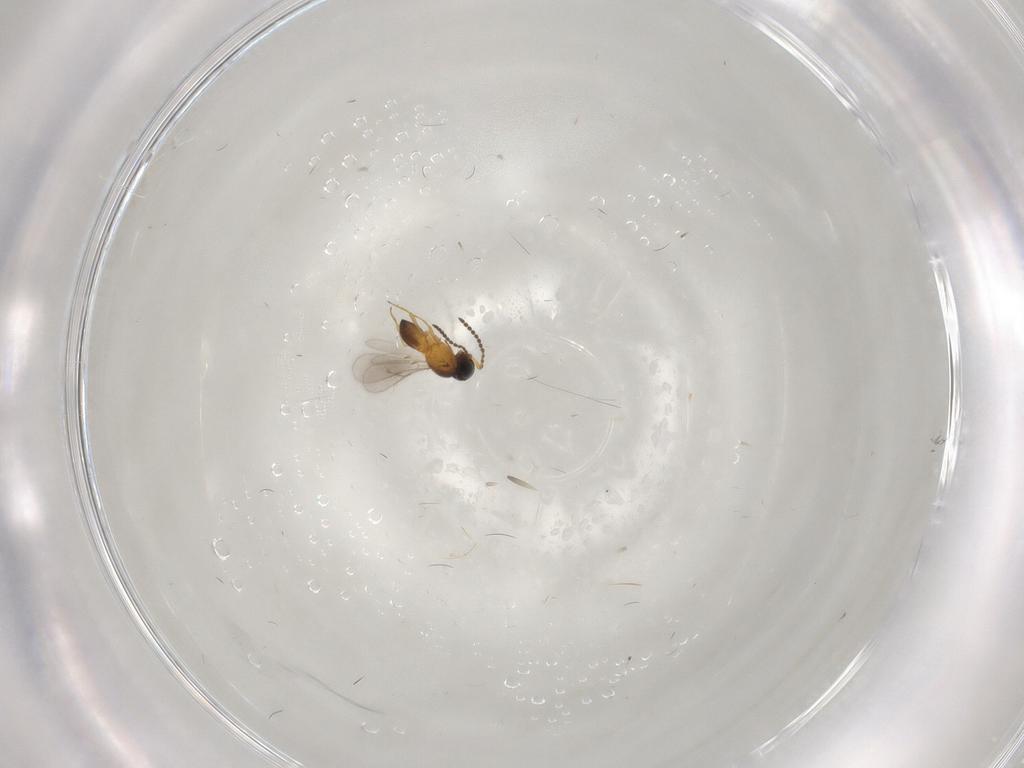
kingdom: Animalia
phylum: Arthropoda
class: Insecta
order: Hymenoptera
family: Scelionidae
